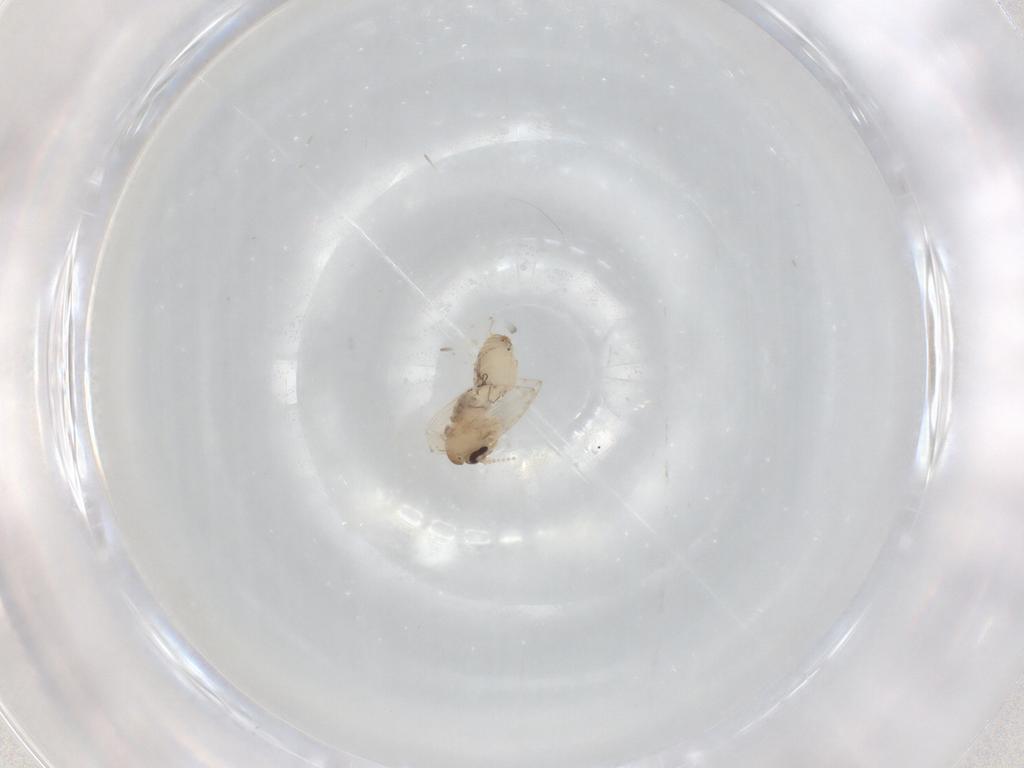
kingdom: Animalia
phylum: Arthropoda
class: Insecta
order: Diptera
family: Psychodidae
